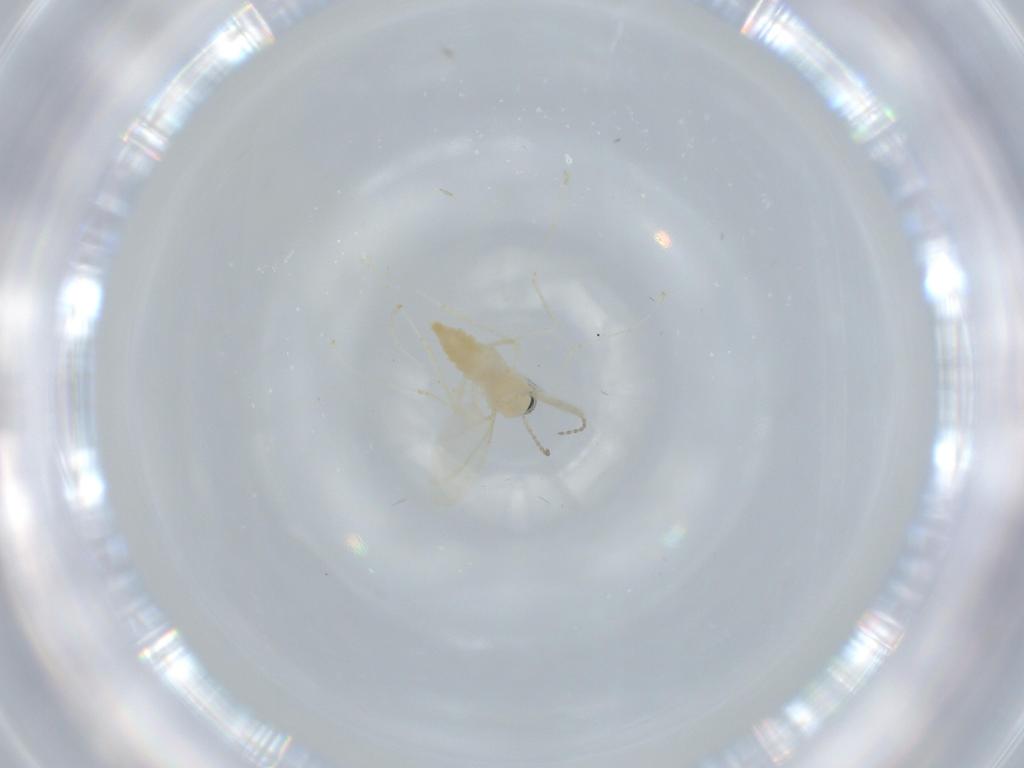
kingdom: Animalia
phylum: Arthropoda
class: Insecta
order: Diptera
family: Cecidomyiidae
